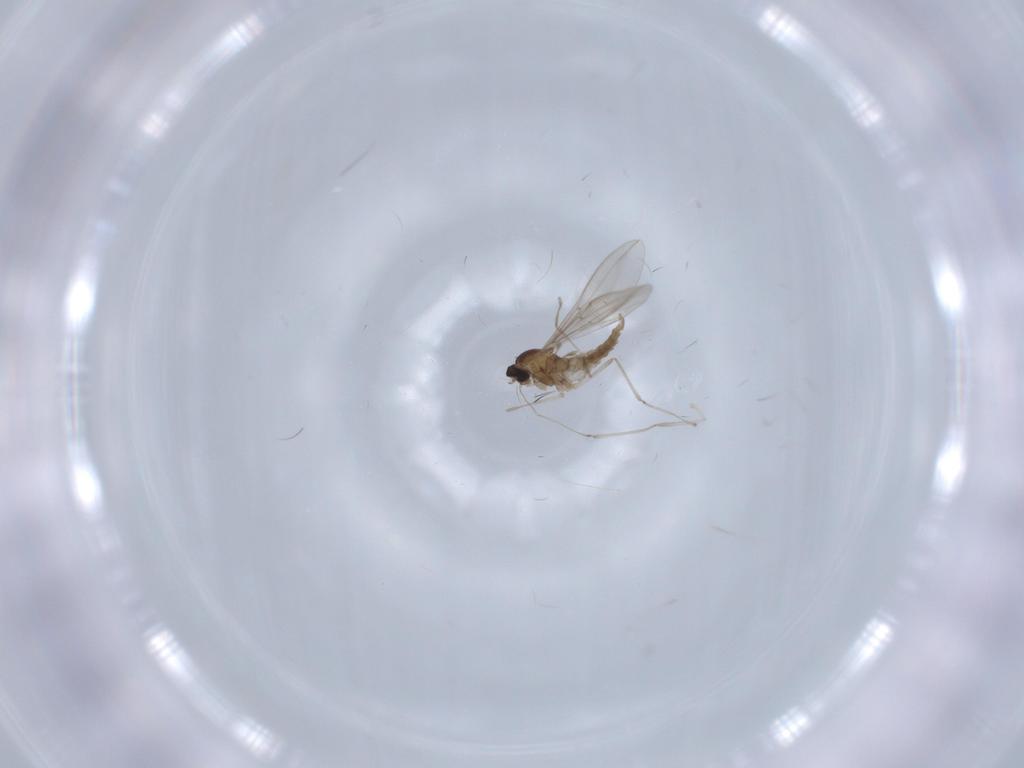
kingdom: Animalia
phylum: Arthropoda
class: Insecta
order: Diptera
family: Cecidomyiidae
